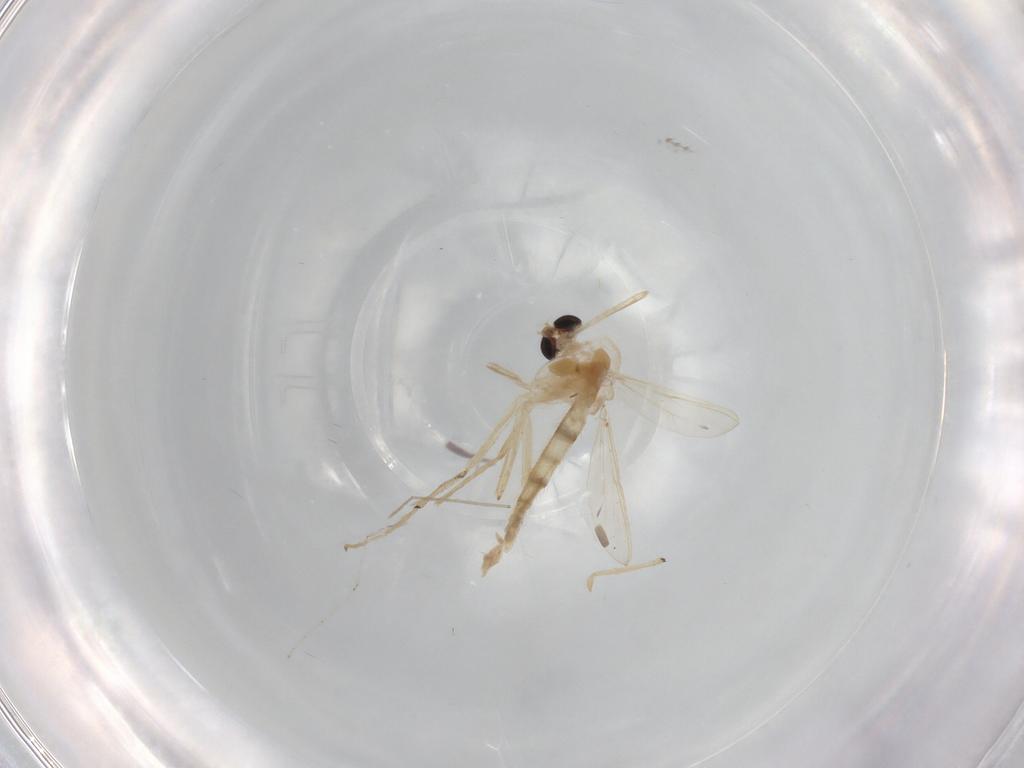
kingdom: Animalia
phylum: Arthropoda
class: Insecta
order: Diptera
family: Chironomidae
